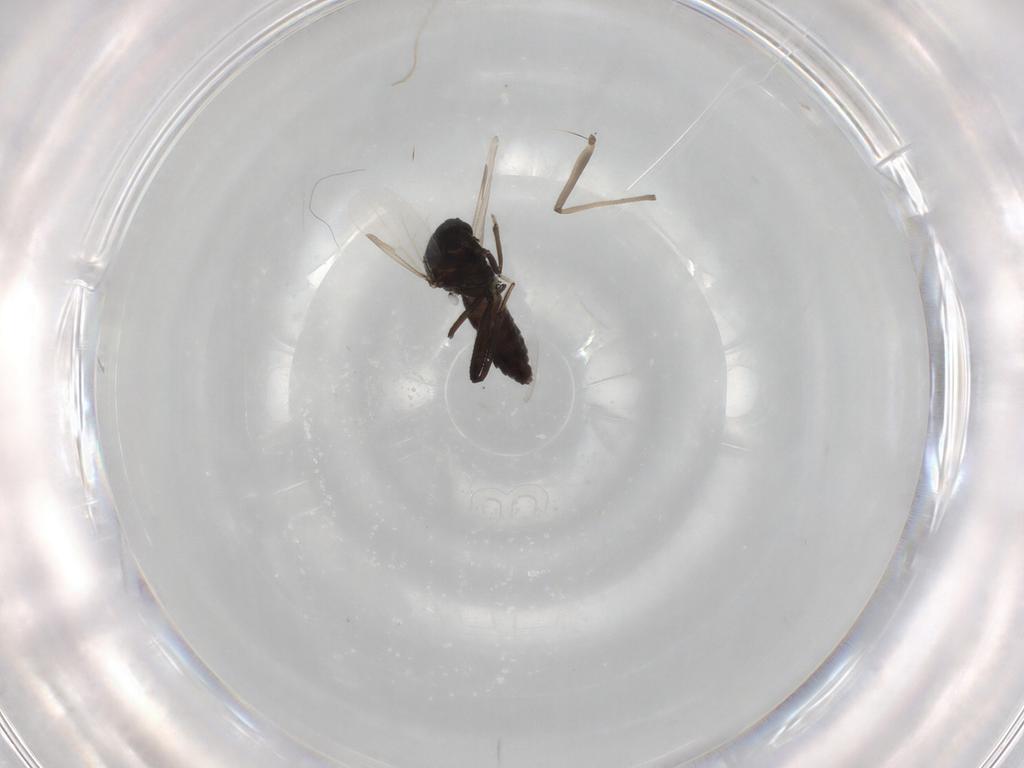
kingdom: Animalia
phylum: Arthropoda
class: Insecta
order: Diptera
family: Ceratopogonidae
